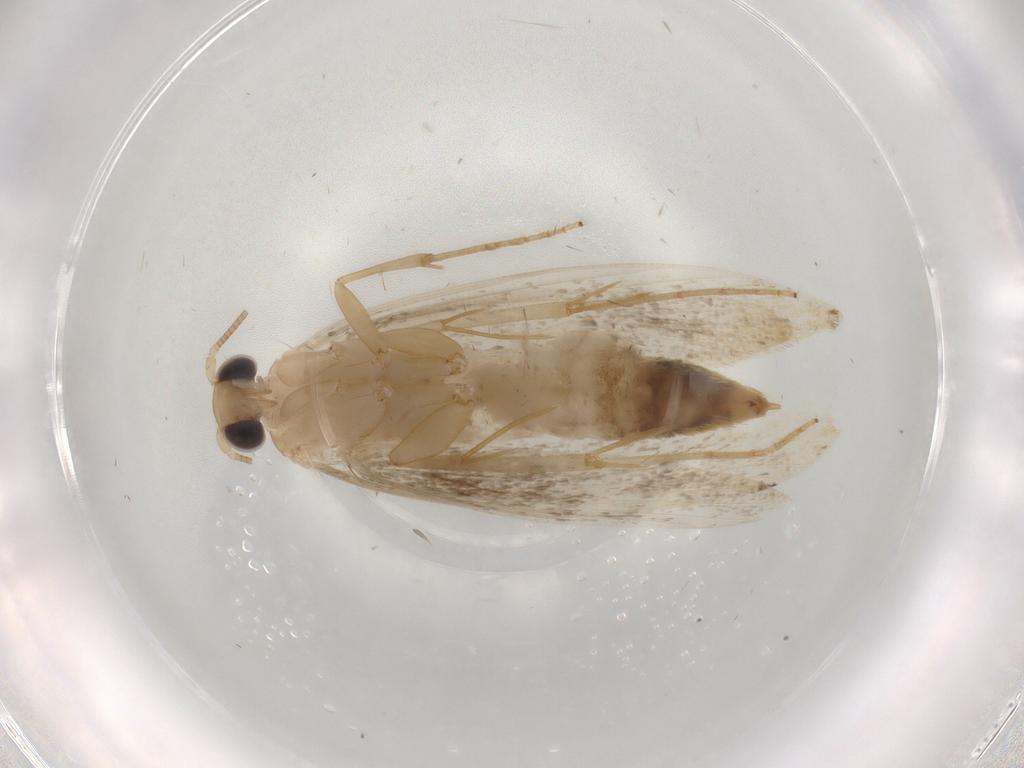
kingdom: Animalia
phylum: Arthropoda
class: Insecta
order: Lepidoptera
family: Tineidae
